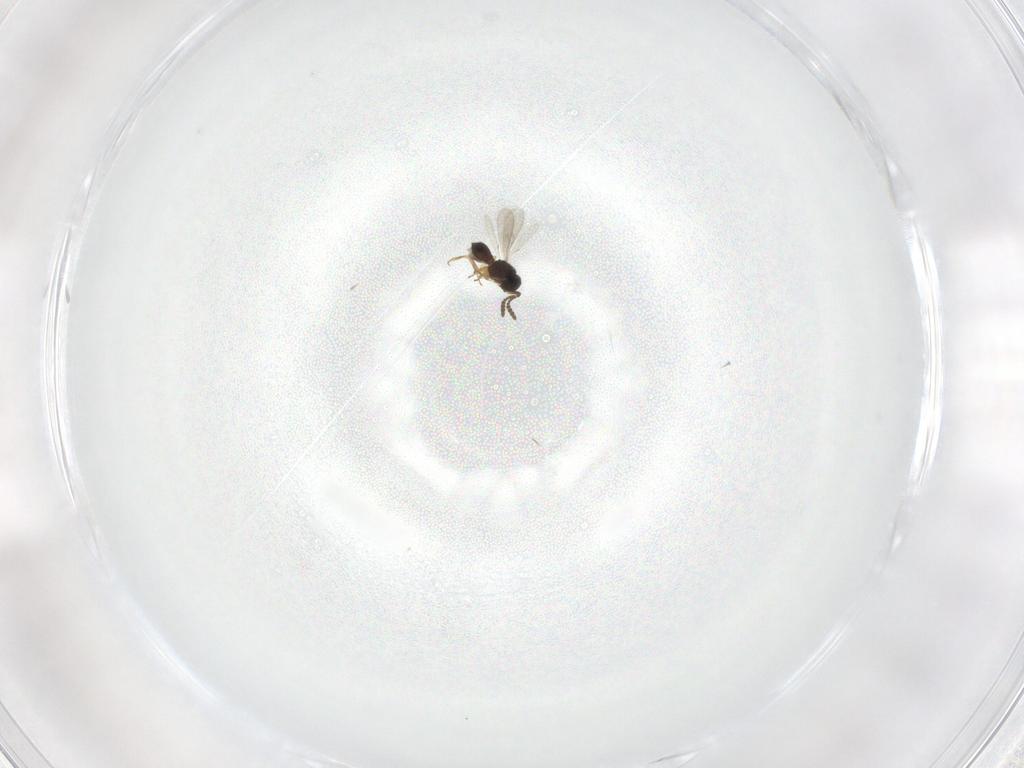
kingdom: Animalia
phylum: Arthropoda
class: Insecta
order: Hymenoptera
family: Scelionidae
